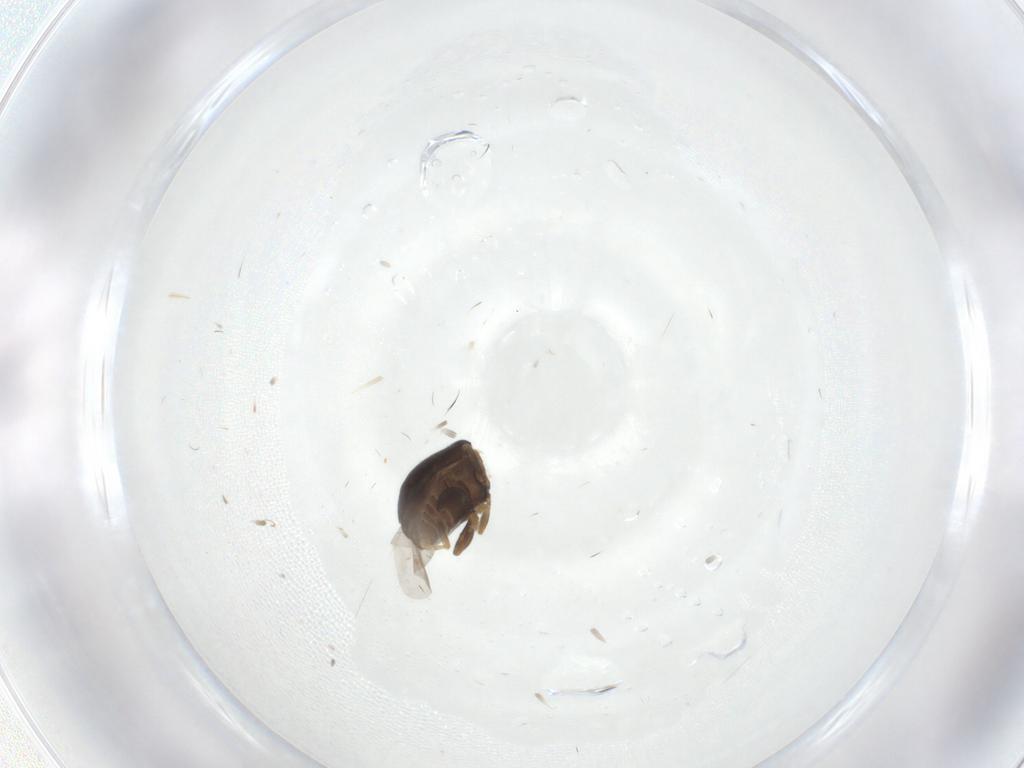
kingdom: Animalia
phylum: Arthropoda
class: Insecta
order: Coleoptera
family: Chrysomelidae
